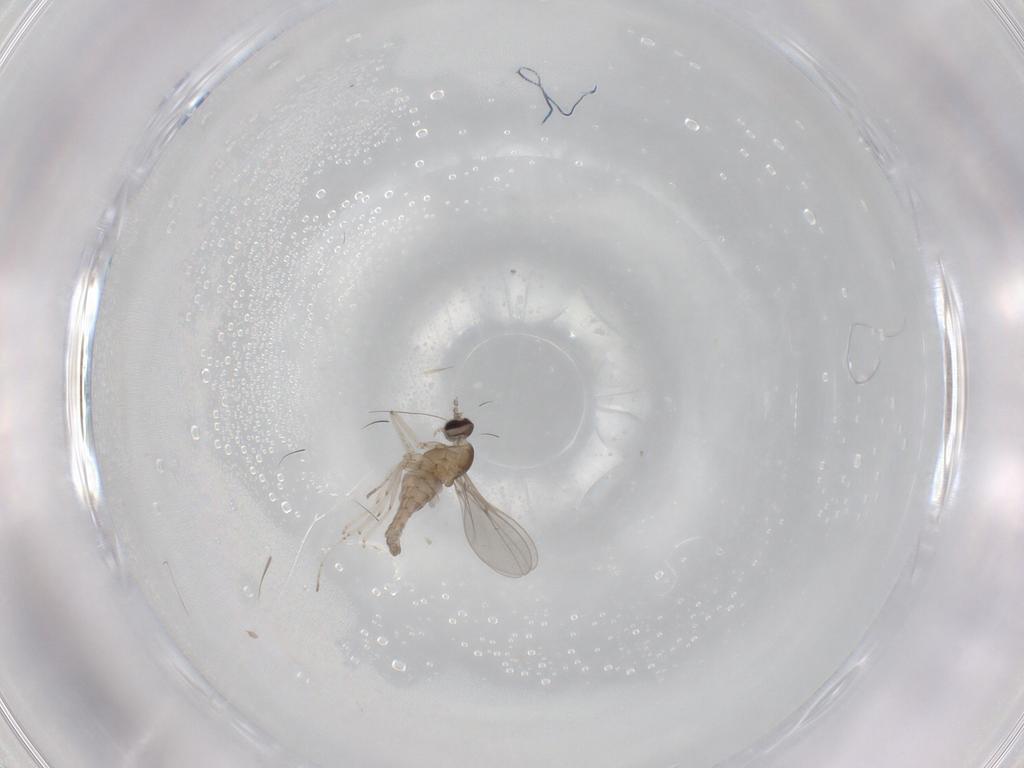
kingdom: Animalia
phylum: Arthropoda
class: Insecta
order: Diptera
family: Cecidomyiidae
